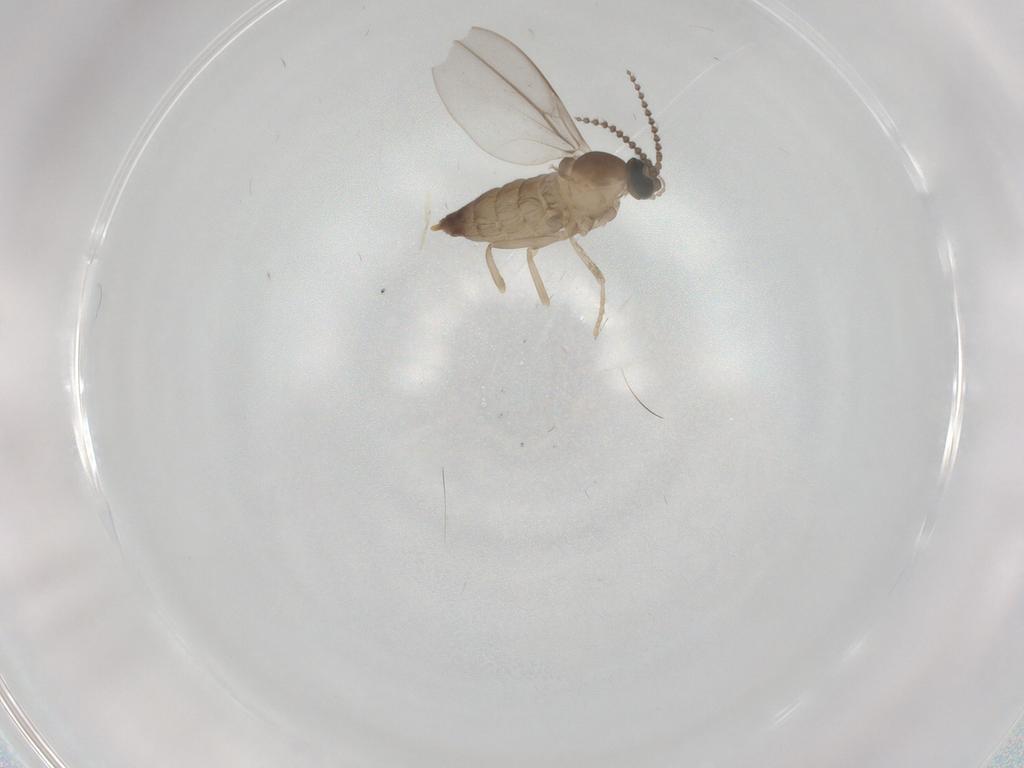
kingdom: Animalia
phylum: Arthropoda
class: Insecta
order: Diptera
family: Cecidomyiidae
